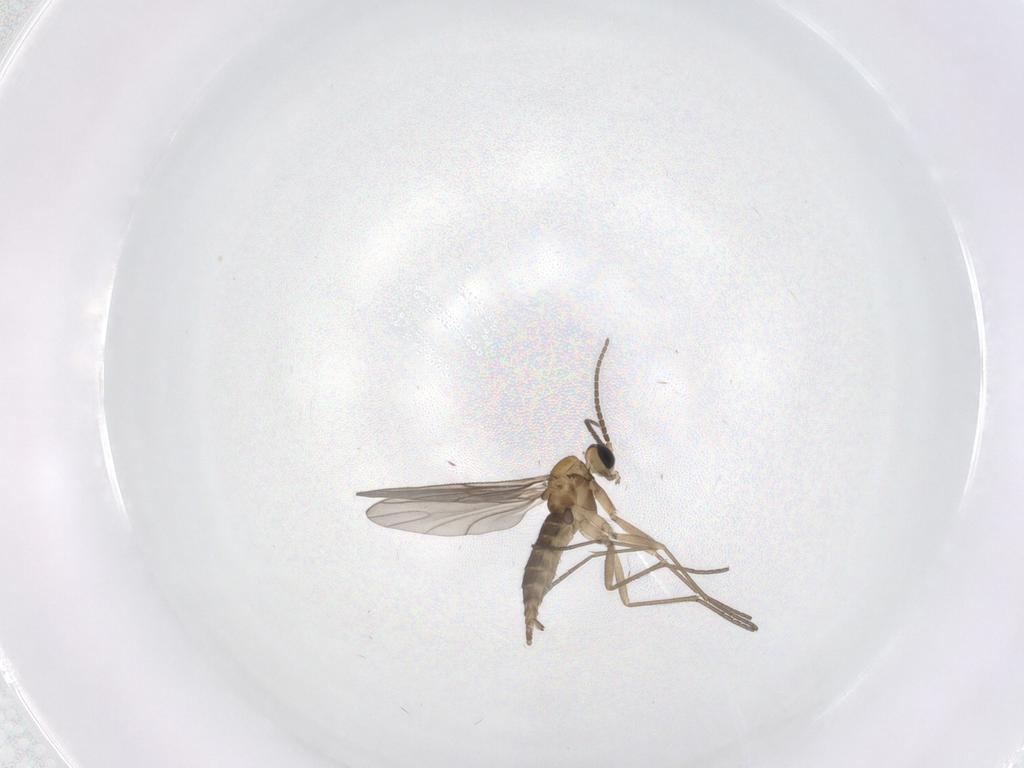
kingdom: Animalia
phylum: Arthropoda
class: Insecta
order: Diptera
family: Sciaridae
